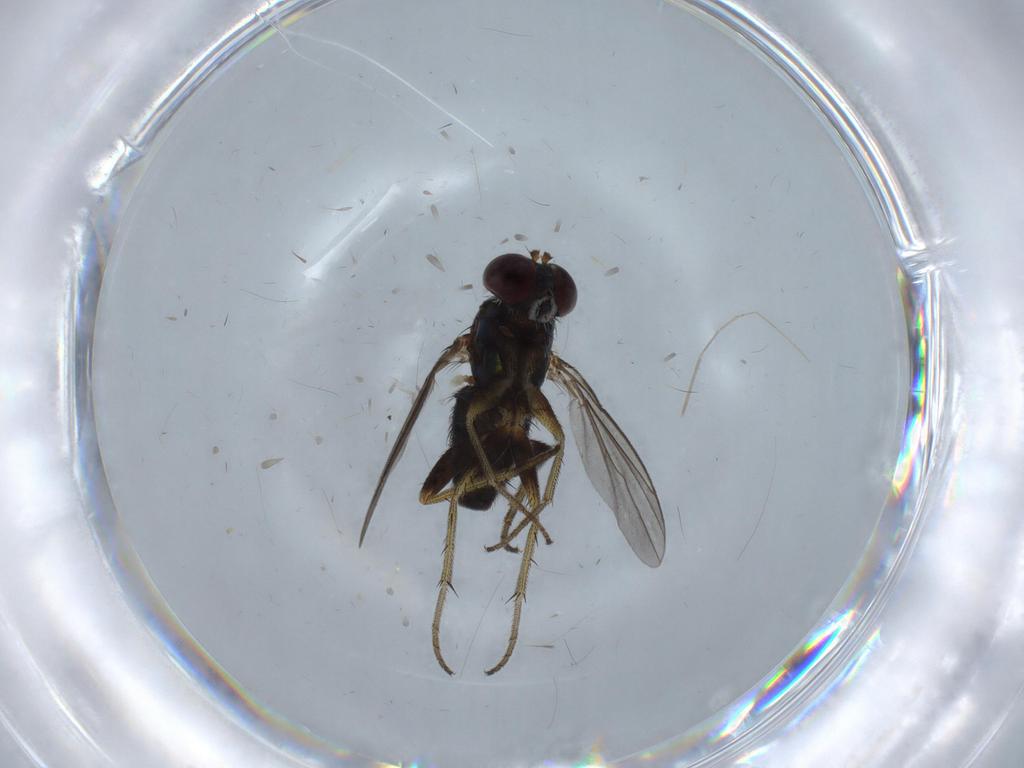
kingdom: Animalia
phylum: Arthropoda
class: Insecta
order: Diptera
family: Cecidomyiidae
